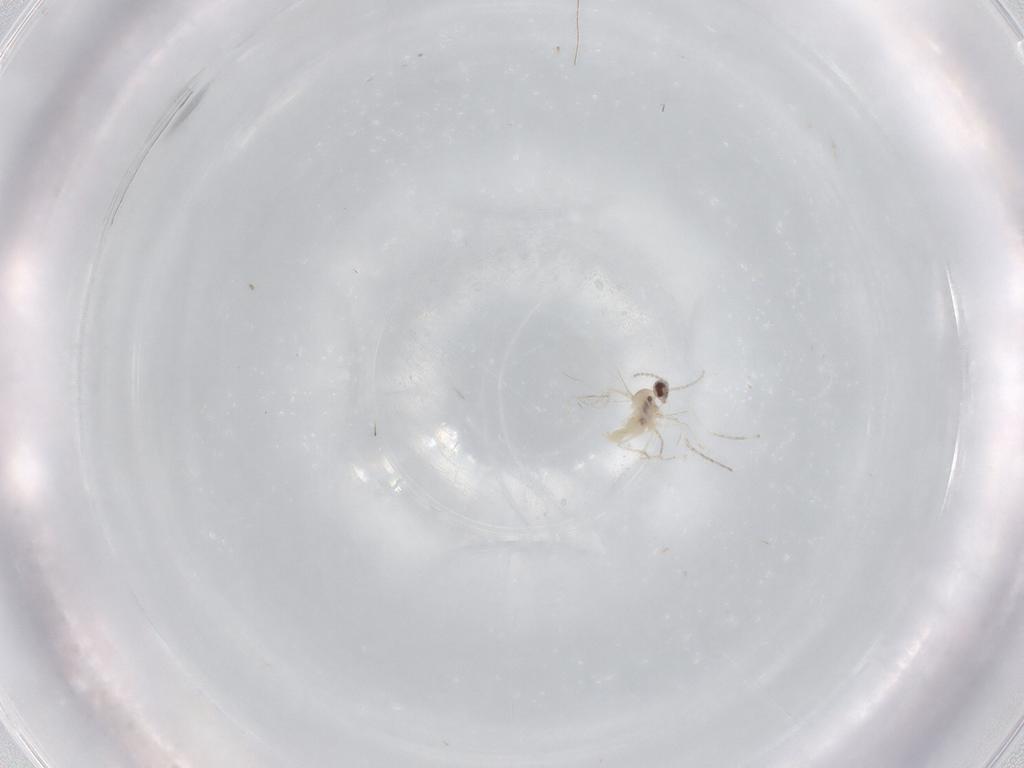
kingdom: Animalia
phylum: Arthropoda
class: Insecta
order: Diptera
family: Cecidomyiidae
